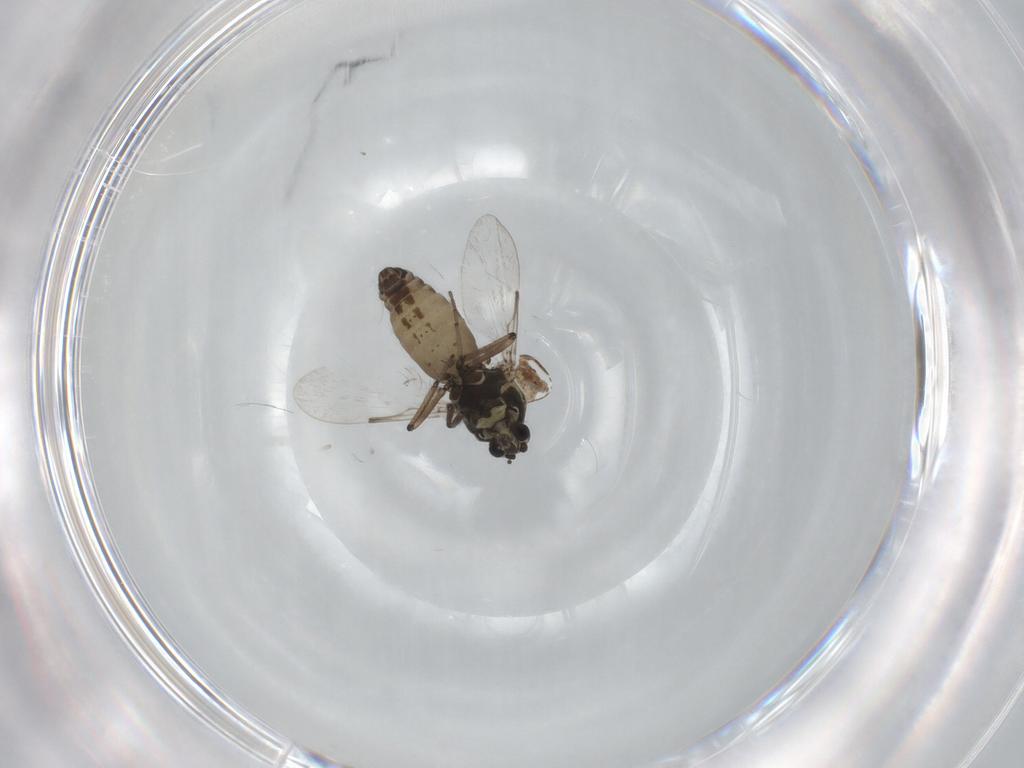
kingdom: Animalia
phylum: Arthropoda
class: Insecta
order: Diptera
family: Ceratopogonidae
